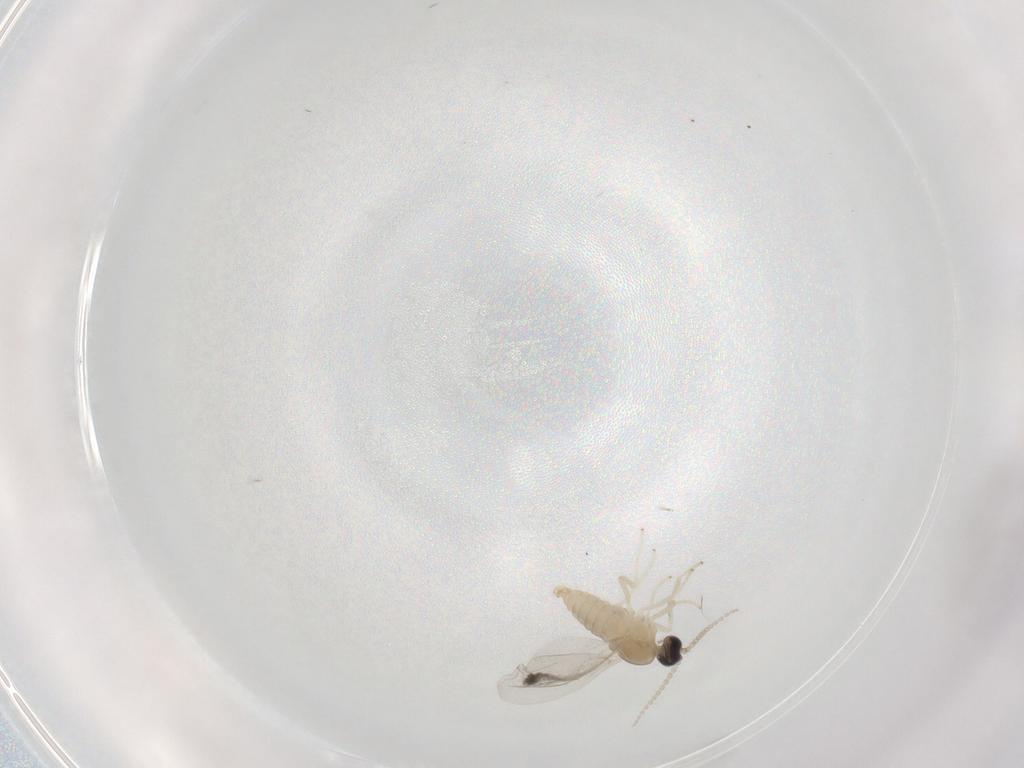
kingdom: Animalia
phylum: Arthropoda
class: Insecta
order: Diptera
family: Cecidomyiidae
